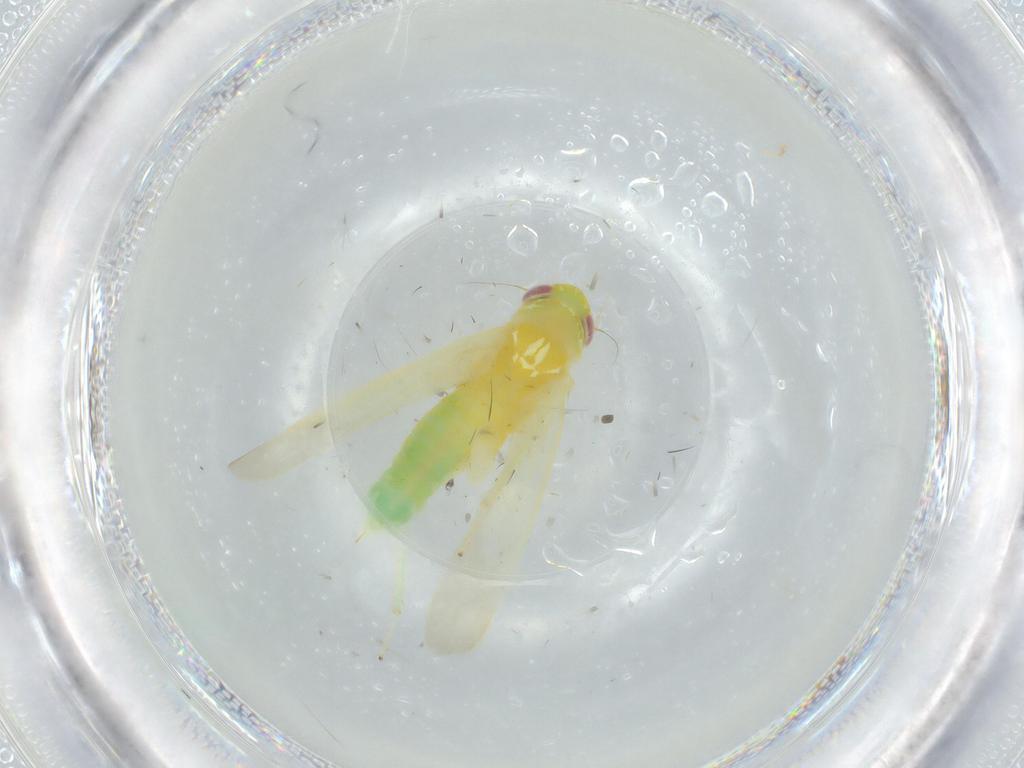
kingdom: Animalia
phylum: Arthropoda
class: Insecta
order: Hemiptera
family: Cicadellidae
